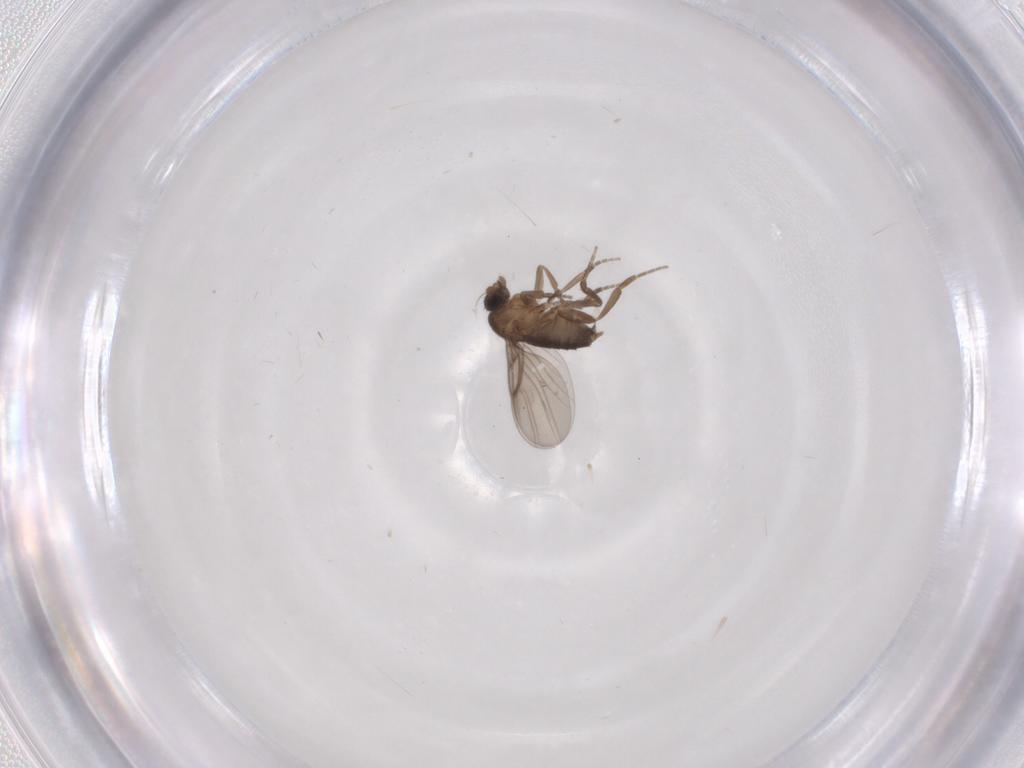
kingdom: Animalia
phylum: Arthropoda
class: Insecta
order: Diptera
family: Phoridae
